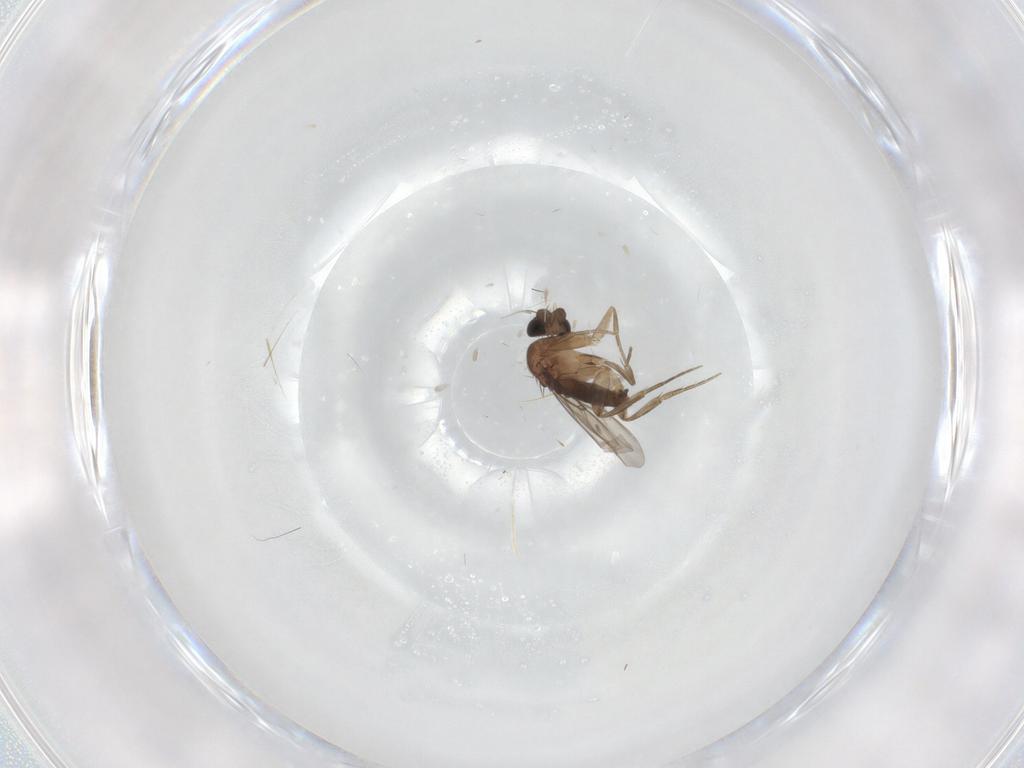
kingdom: Animalia
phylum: Arthropoda
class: Insecta
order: Diptera
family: Phoridae
